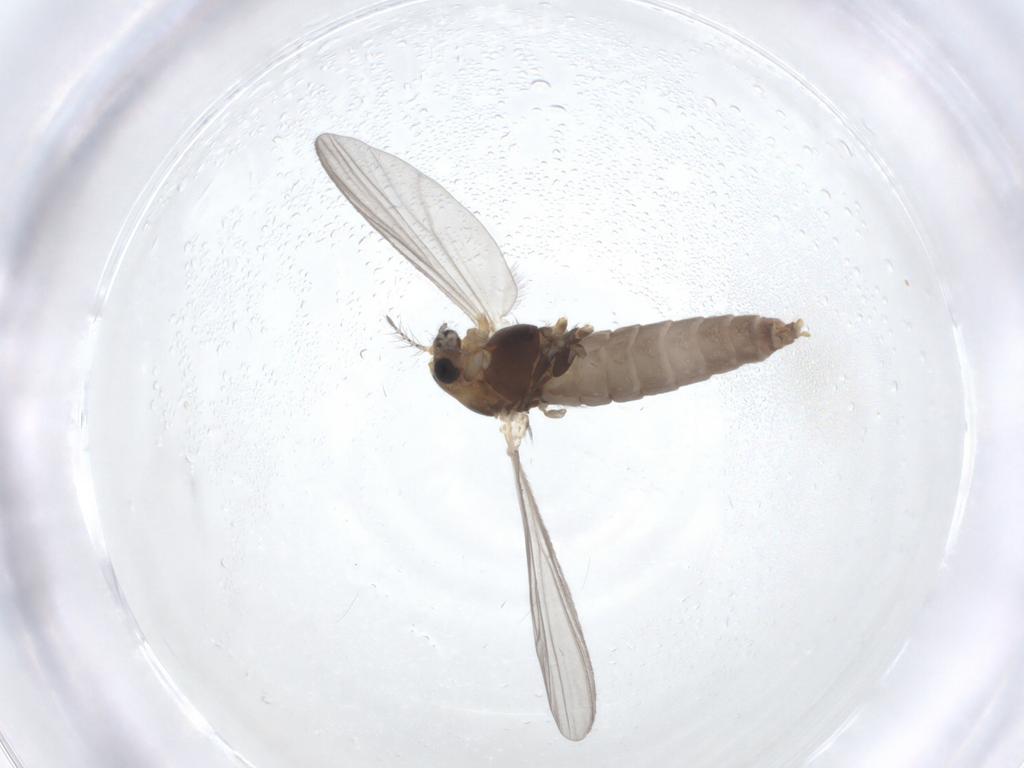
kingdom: Animalia
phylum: Arthropoda
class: Insecta
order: Diptera
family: Chironomidae
